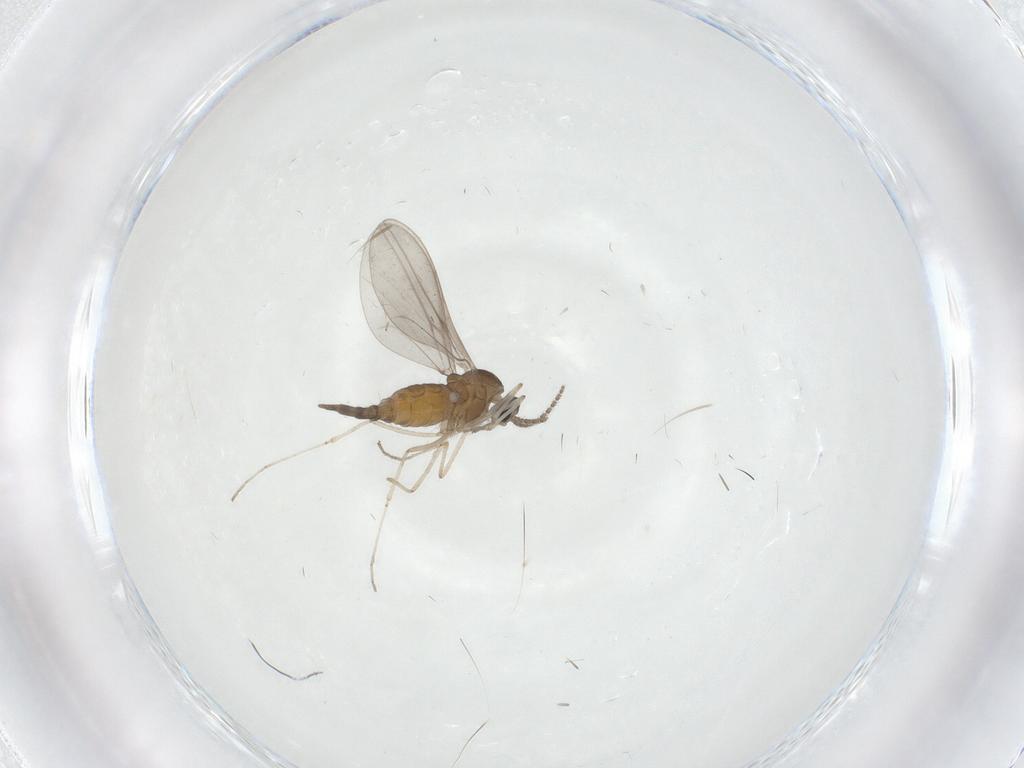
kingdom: Animalia
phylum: Arthropoda
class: Insecta
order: Diptera
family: Cecidomyiidae
